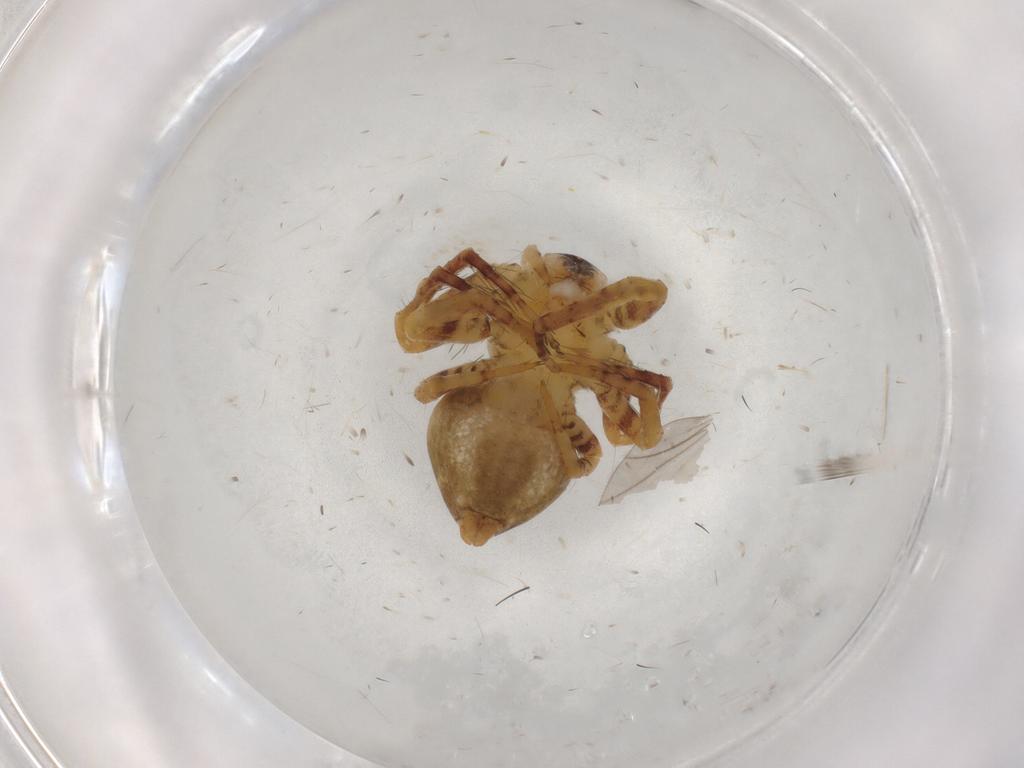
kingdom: Animalia
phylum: Arthropoda
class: Arachnida
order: Araneae
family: Oxyopidae
